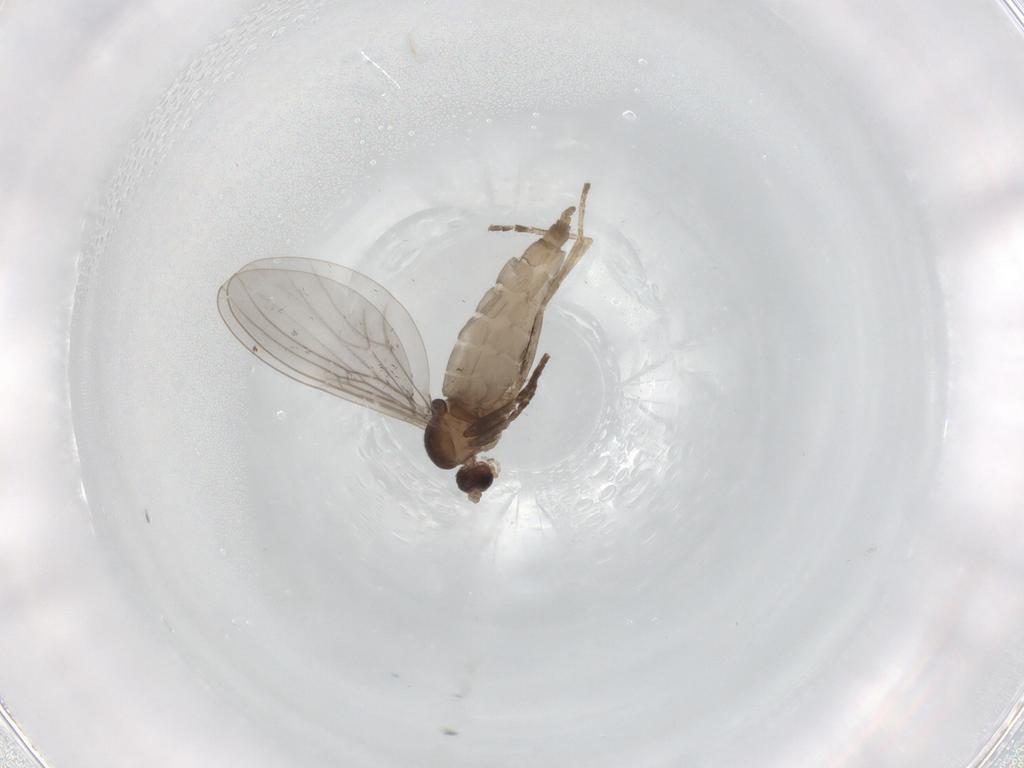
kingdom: Animalia
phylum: Arthropoda
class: Insecta
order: Diptera
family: Cecidomyiidae
